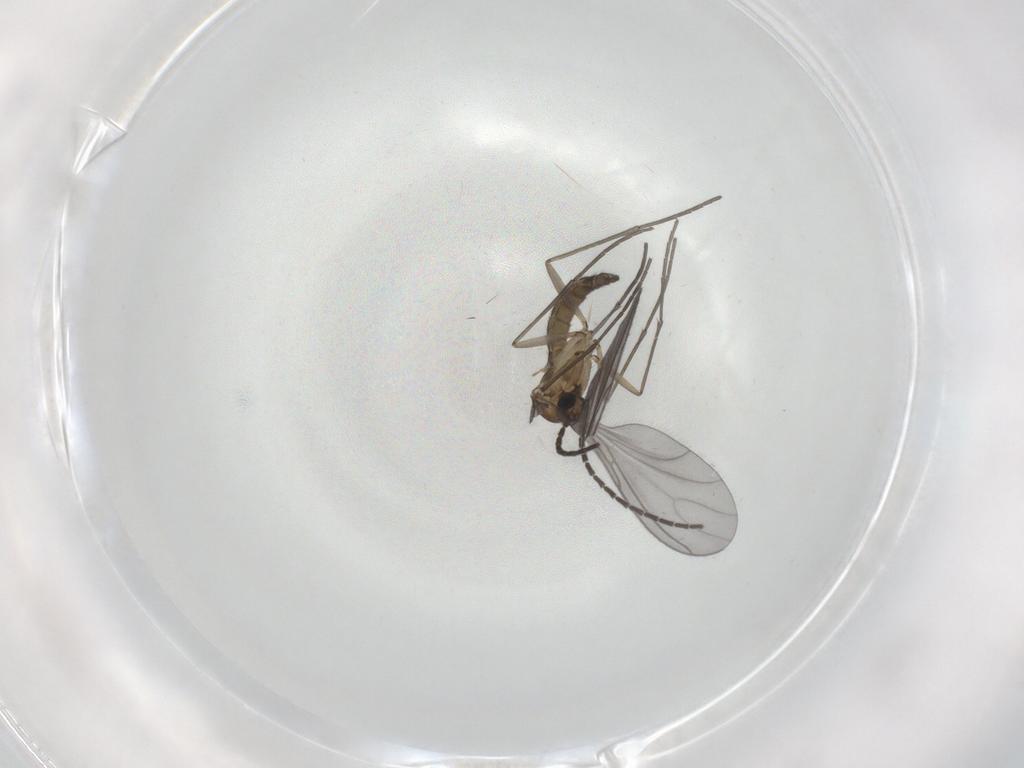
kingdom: Animalia
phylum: Arthropoda
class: Insecta
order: Diptera
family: Sciaridae
